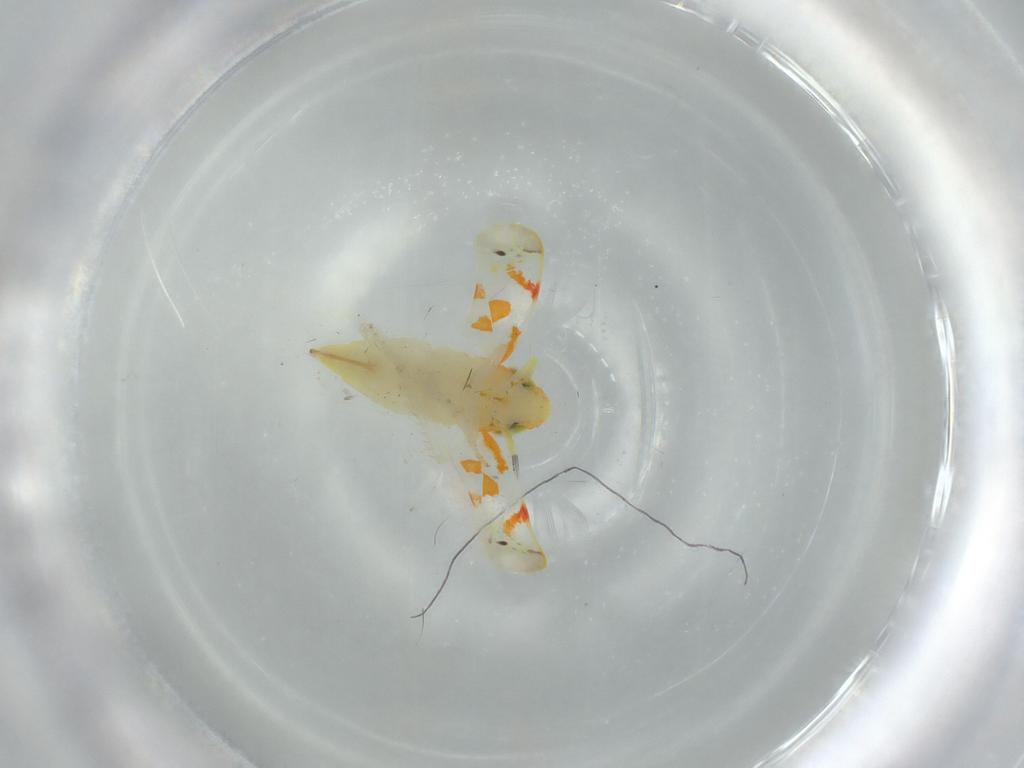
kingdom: Animalia
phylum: Arthropoda
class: Insecta
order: Hemiptera
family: Cicadellidae
